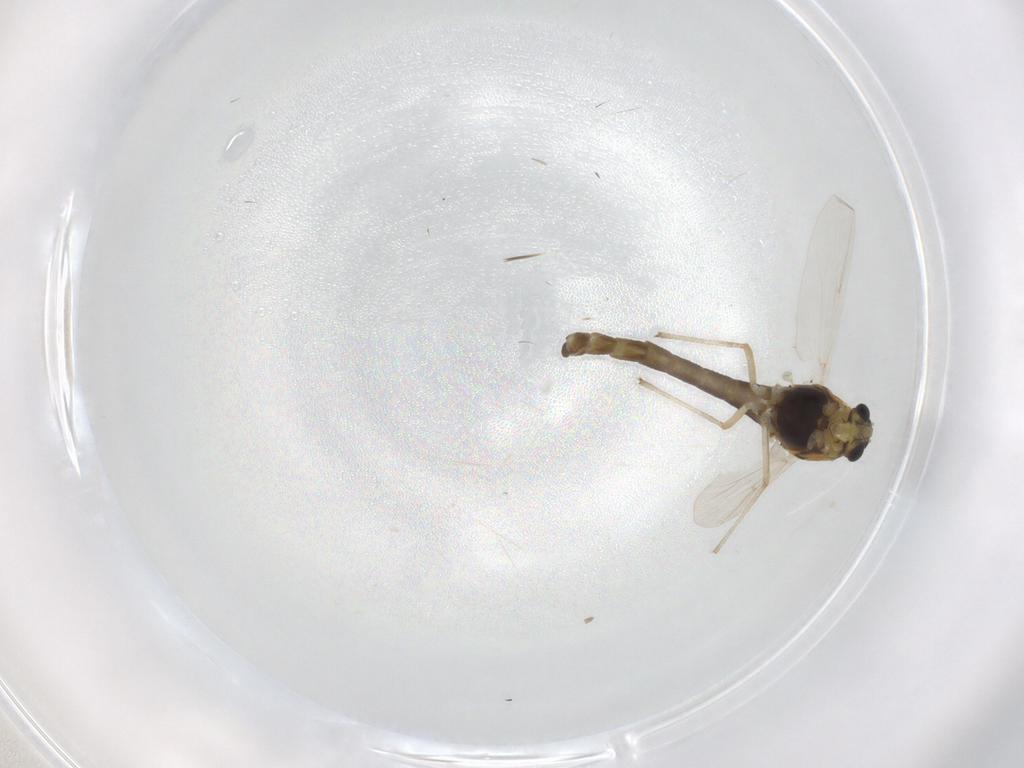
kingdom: Animalia
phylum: Arthropoda
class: Insecta
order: Diptera
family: Chironomidae
